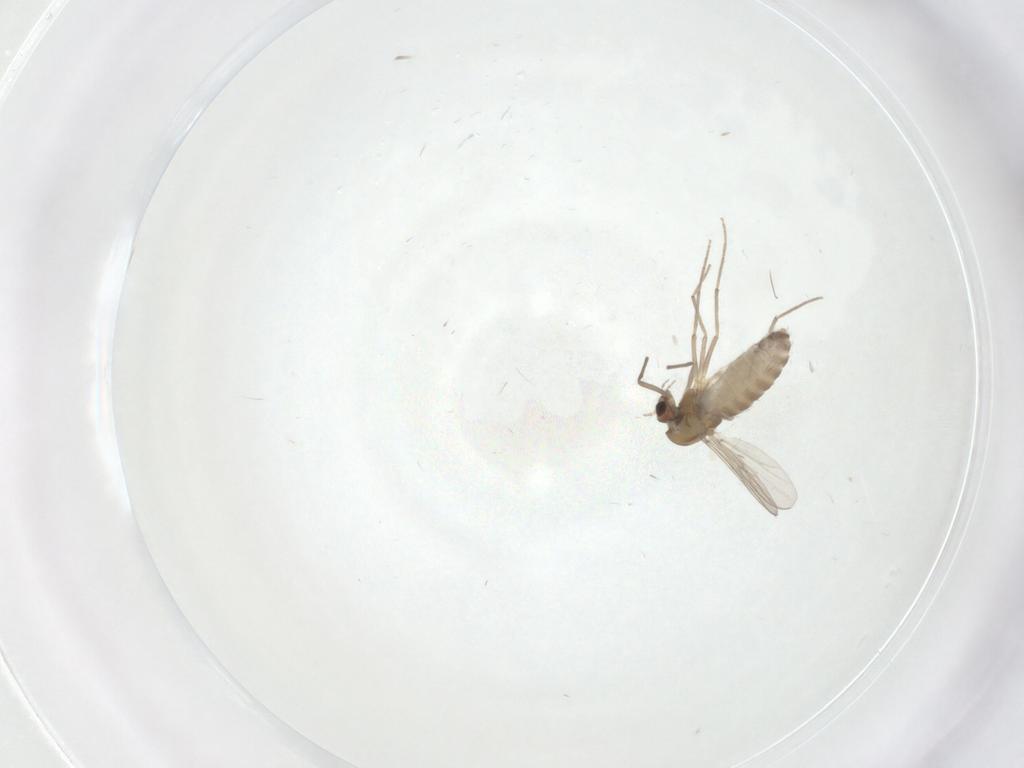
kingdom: Animalia
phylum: Arthropoda
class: Insecta
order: Diptera
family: Chironomidae
